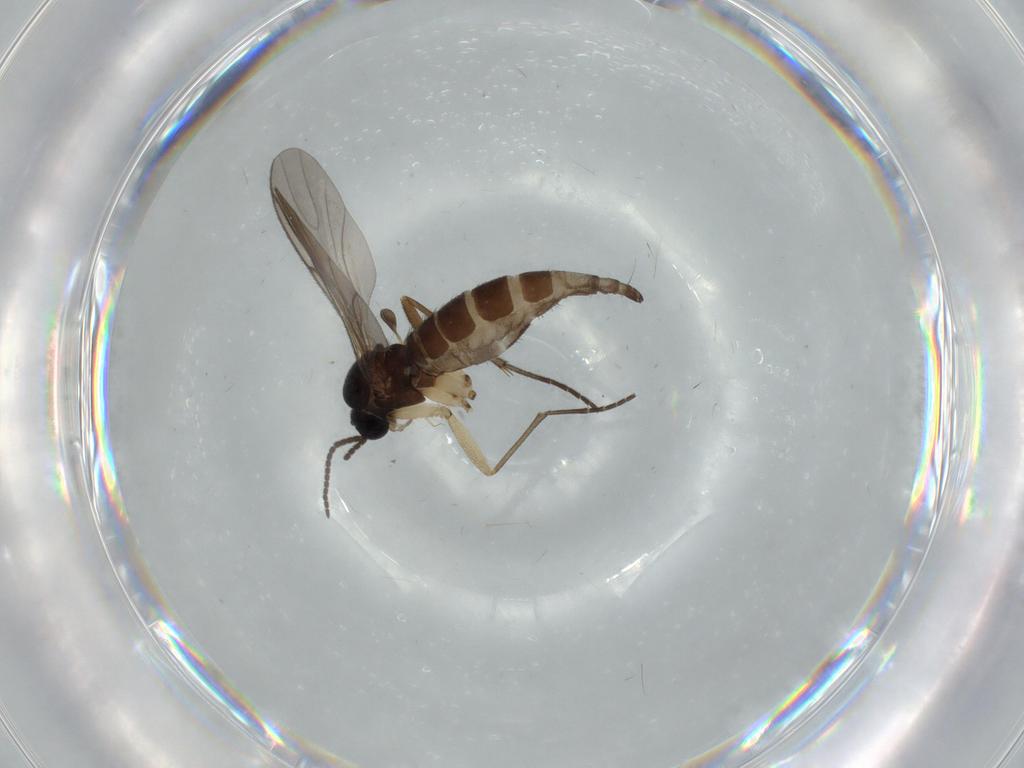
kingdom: Animalia
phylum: Arthropoda
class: Insecta
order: Diptera
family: Sciaridae
